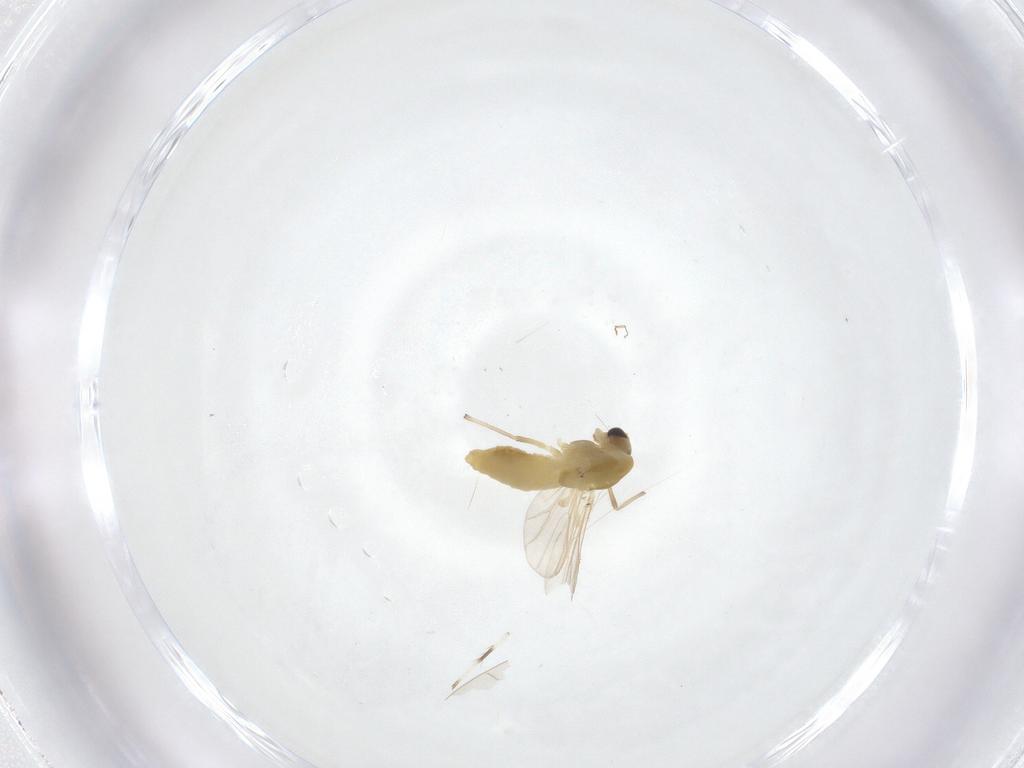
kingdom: Animalia
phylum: Arthropoda
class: Insecta
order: Diptera
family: Chironomidae
